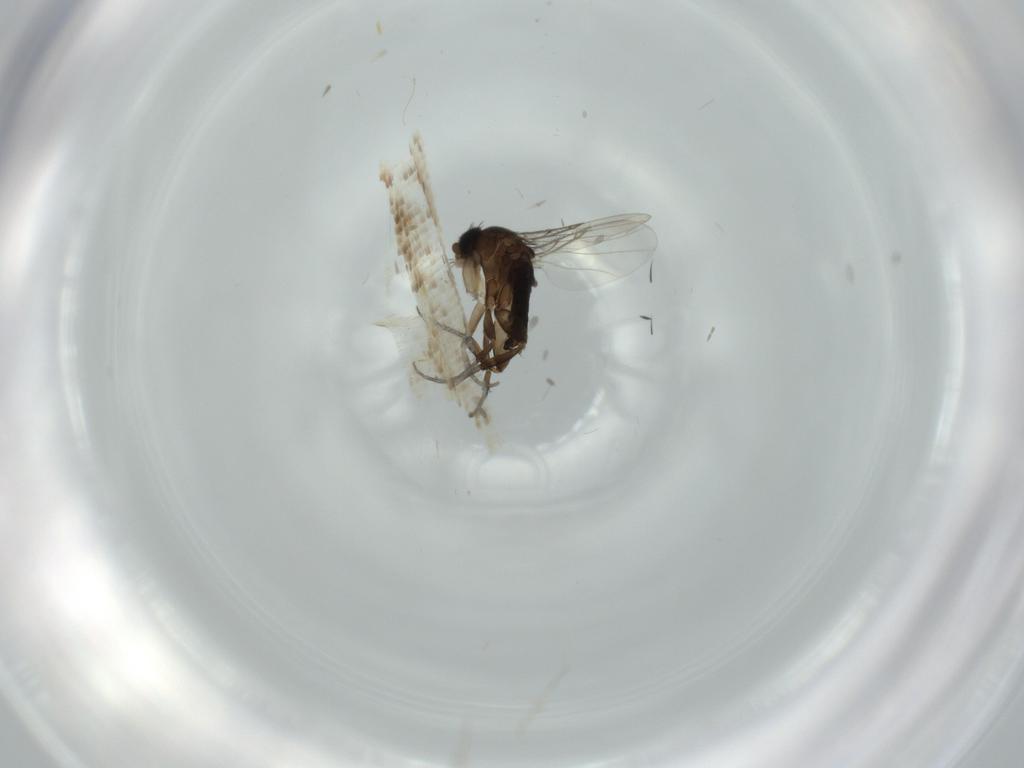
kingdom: Animalia
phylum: Arthropoda
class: Insecta
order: Diptera
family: Phoridae
